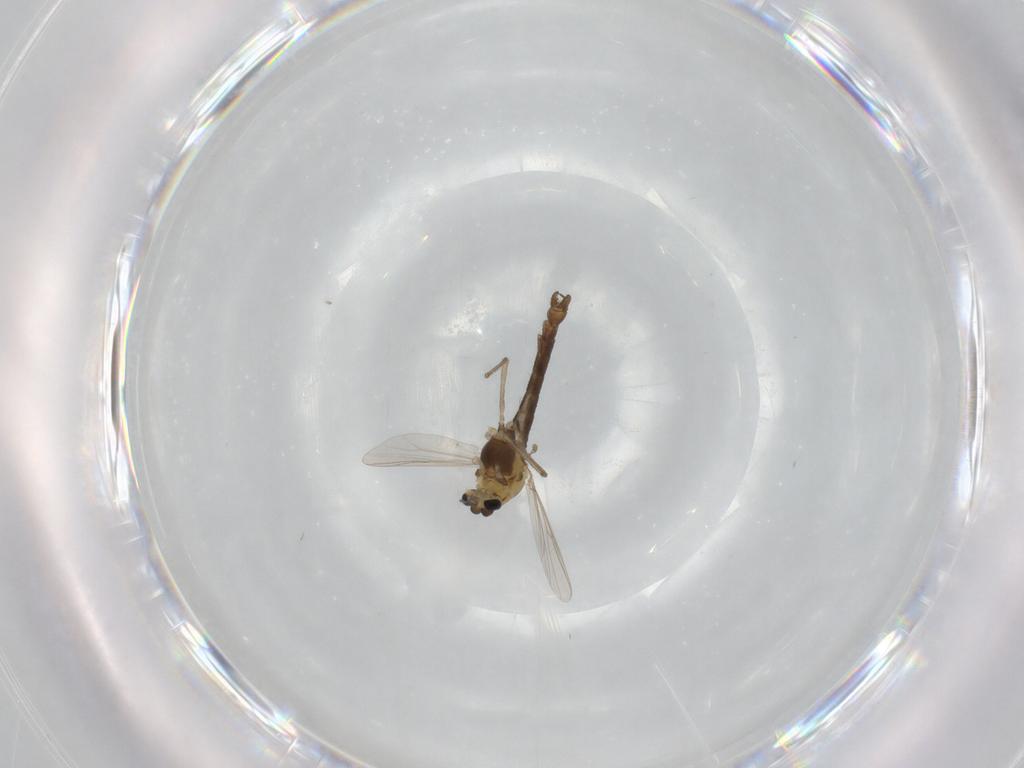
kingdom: Animalia
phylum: Arthropoda
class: Insecta
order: Diptera
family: Chironomidae
